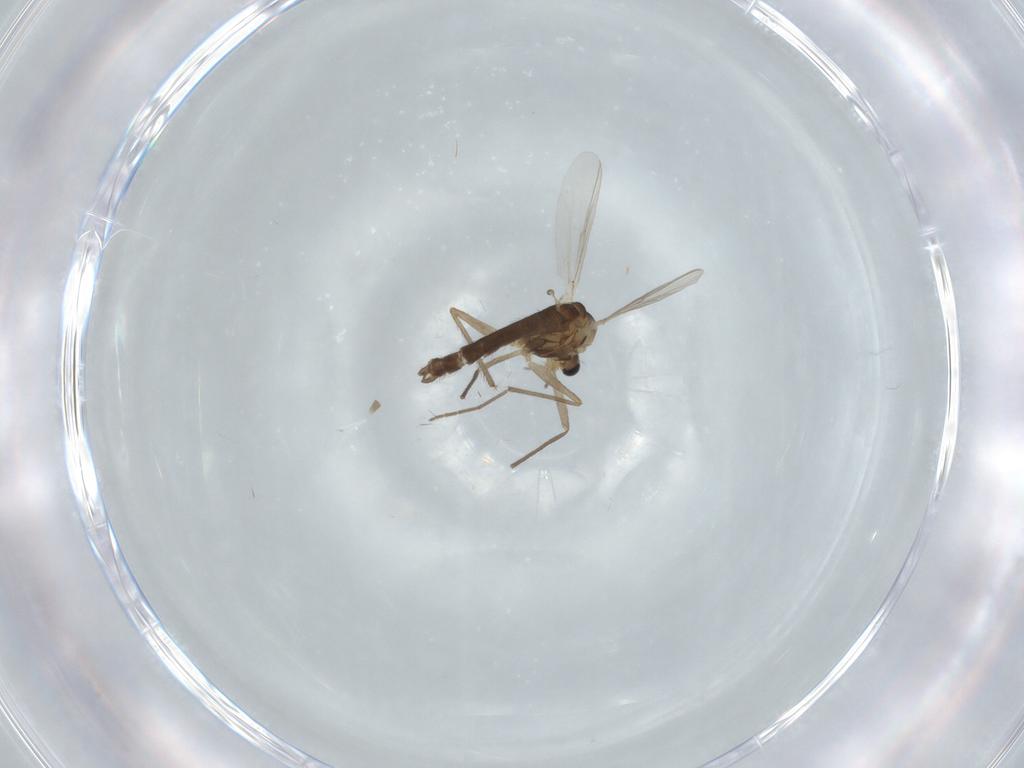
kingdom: Animalia
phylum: Arthropoda
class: Insecta
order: Diptera
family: Chironomidae
